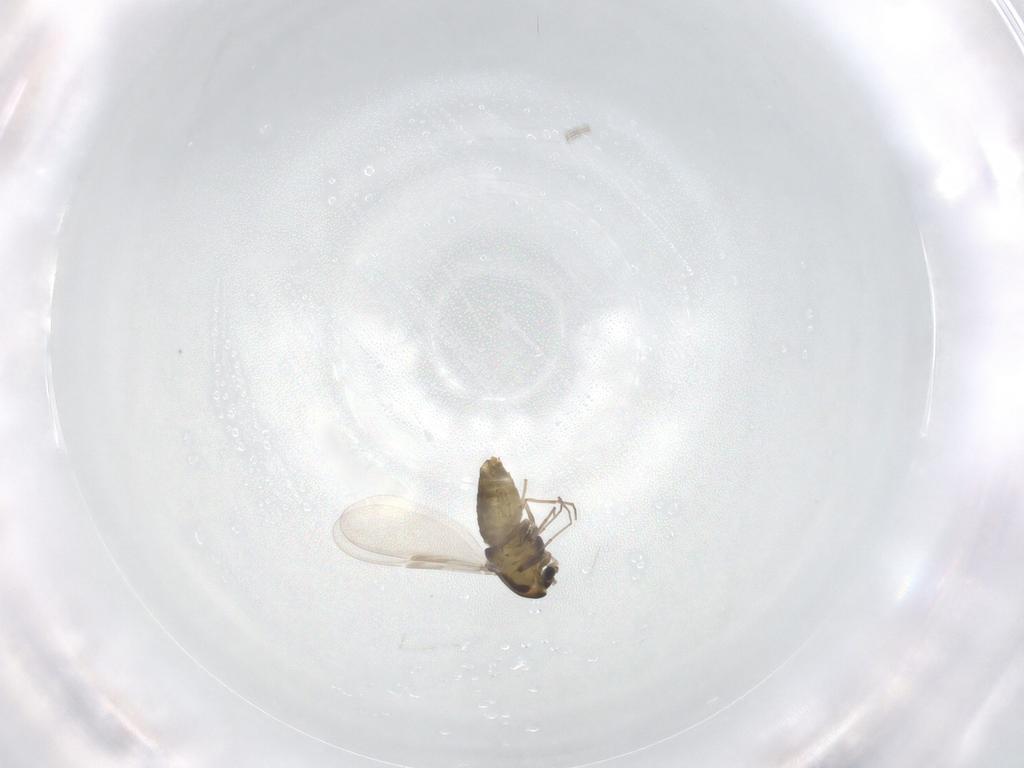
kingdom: Animalia
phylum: Arthropoda
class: Insecta
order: Diptera
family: Chironomidae
